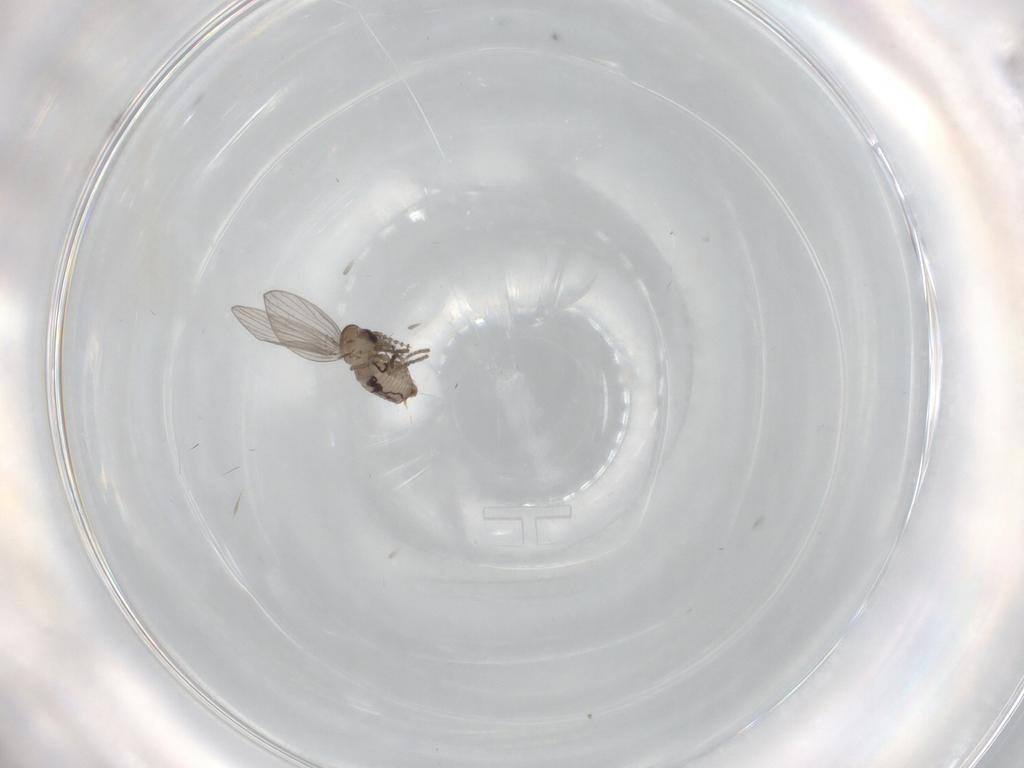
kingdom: Animalia
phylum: Arthropoda
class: Insecta
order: Diptera
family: Psychodidae
